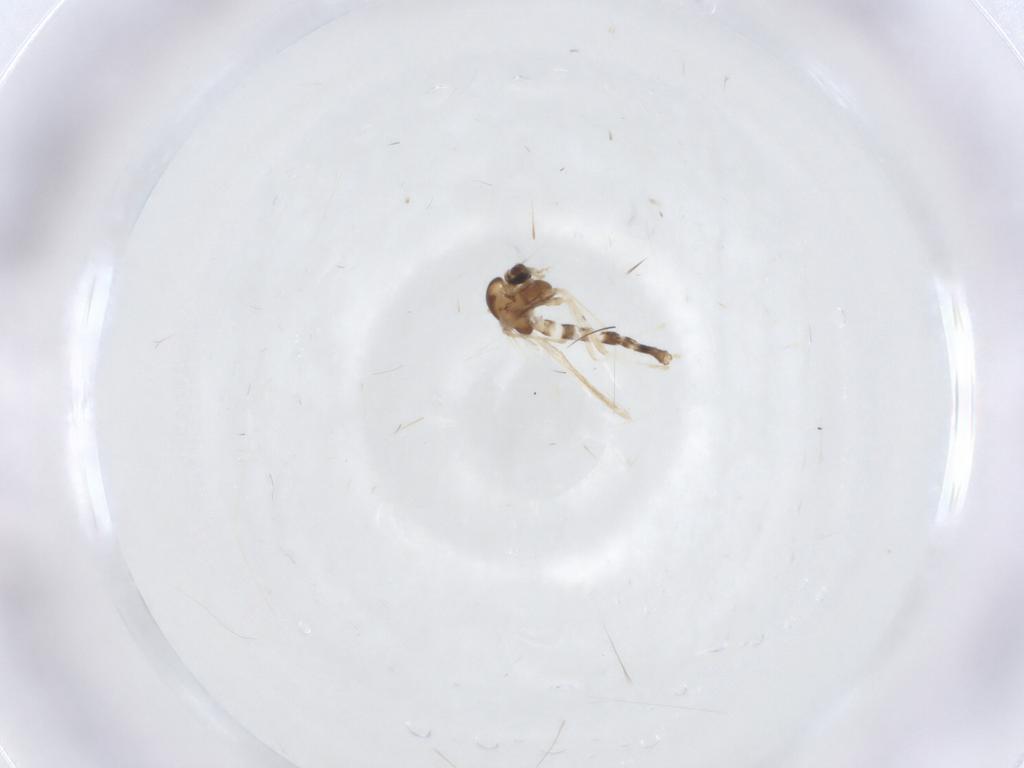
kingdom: Animalia
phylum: Arthropoda
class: Insecta
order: Diptera
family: Chironomidae
